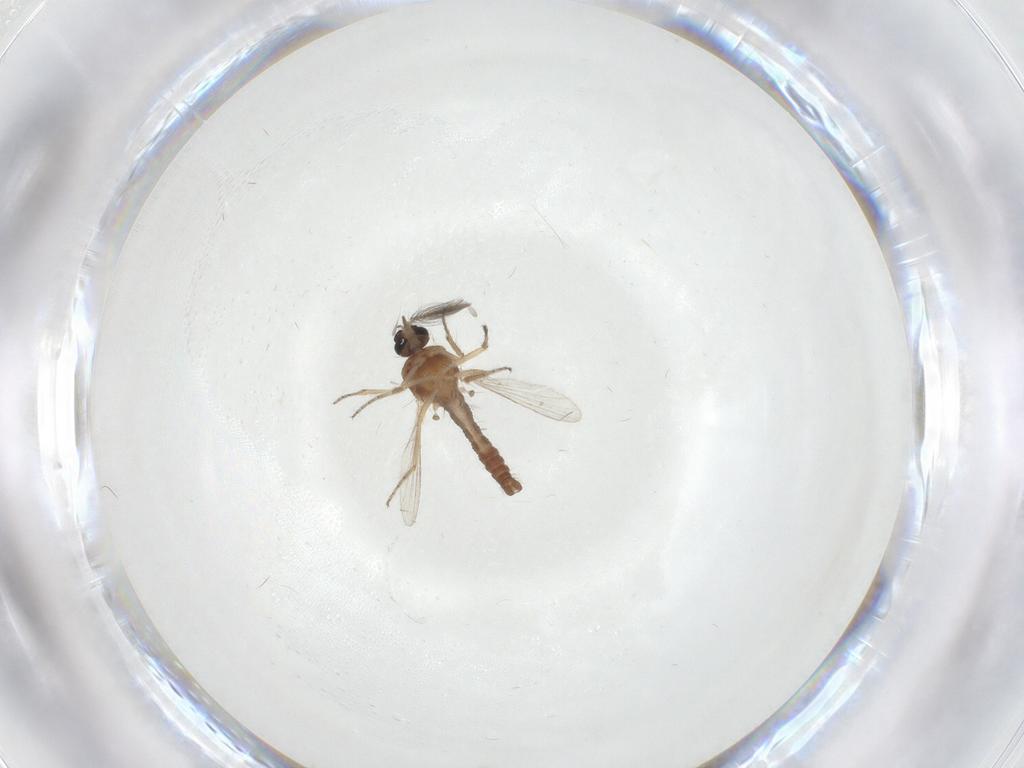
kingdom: Animalia
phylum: Arthropoda
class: Insecta
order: Diptera
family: Ceratopogonidae
